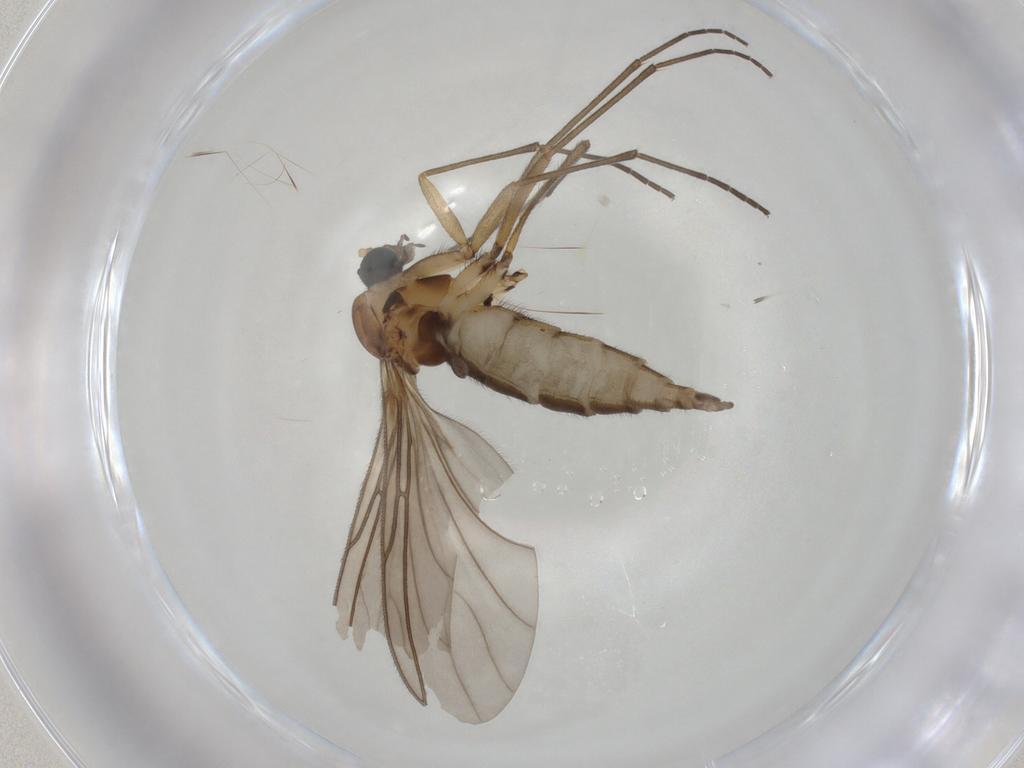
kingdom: Animalia
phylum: Arthropoda
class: Insecta
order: Diptera
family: Sciaridae
